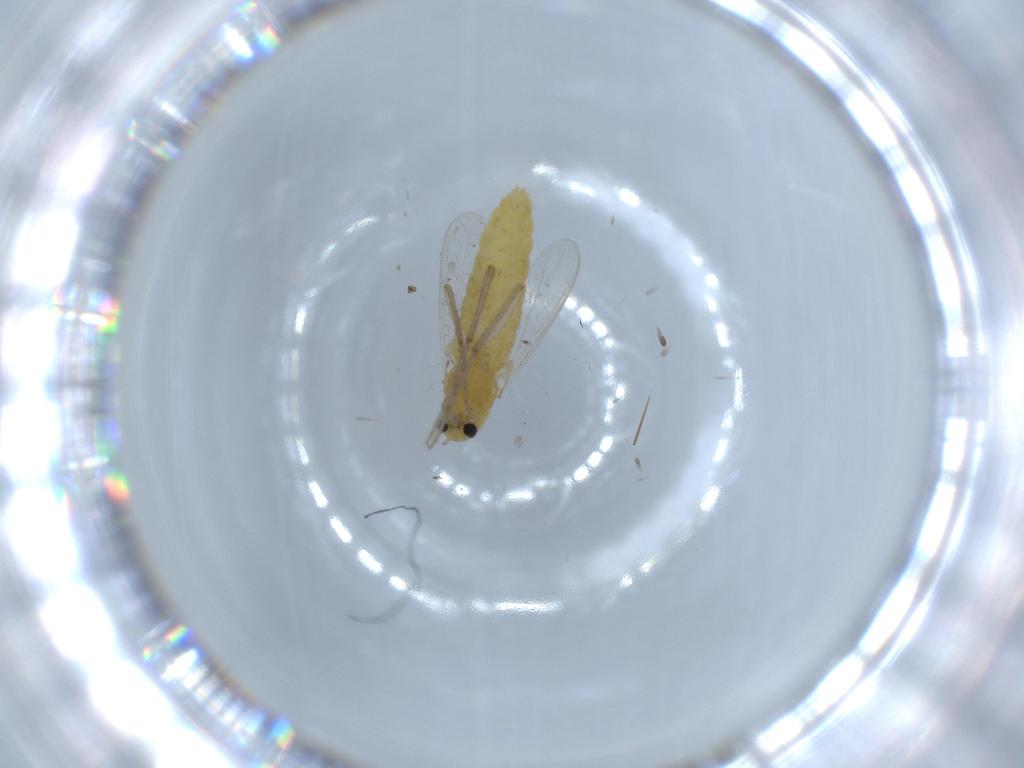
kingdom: Animalia
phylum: Arthropoda
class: Insecta
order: Diptera
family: Chironomidae
